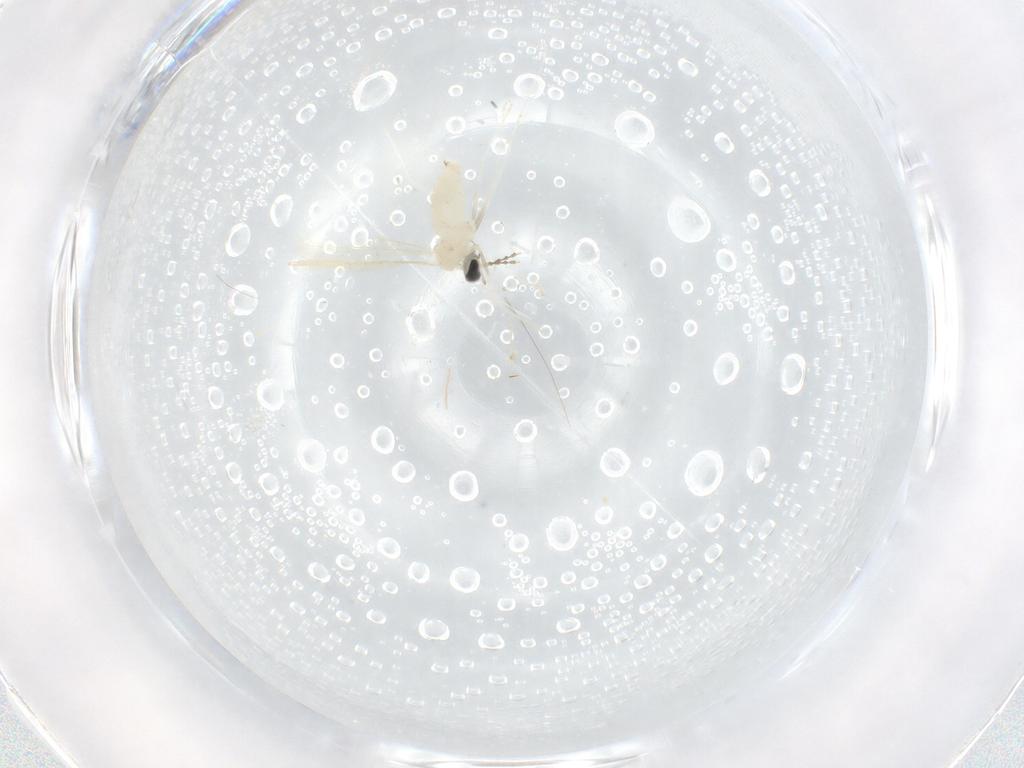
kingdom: Animalia
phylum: Arthropoda
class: Insecta
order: Diptera
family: Cecidomyiidae
